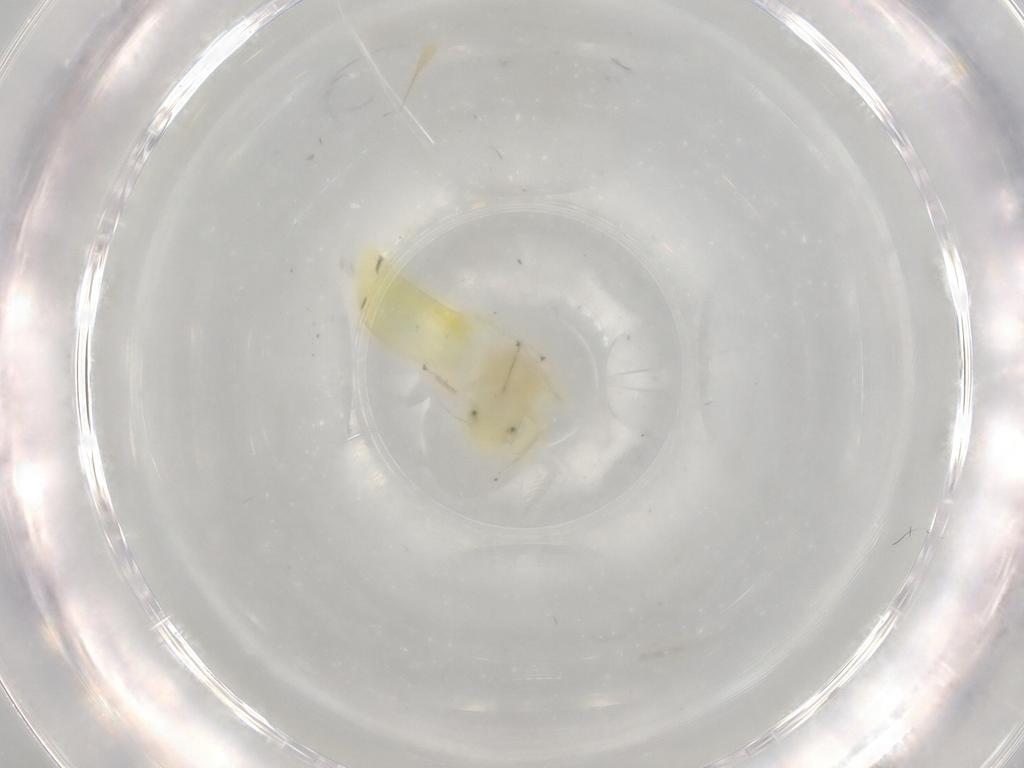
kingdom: Animalia
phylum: Arthropoda
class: Insecta
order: Hemiptera
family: Cicadellidae
